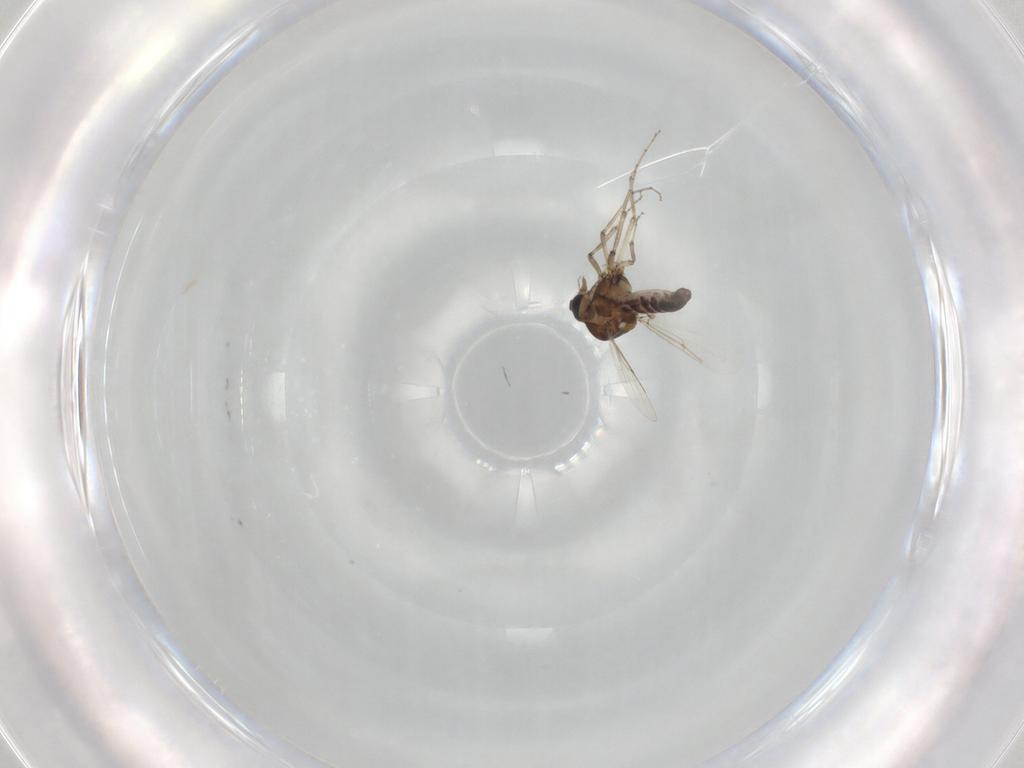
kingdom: Animalia
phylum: Arthropoda
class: Insecta
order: Diptera
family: Ceratopogonidae
